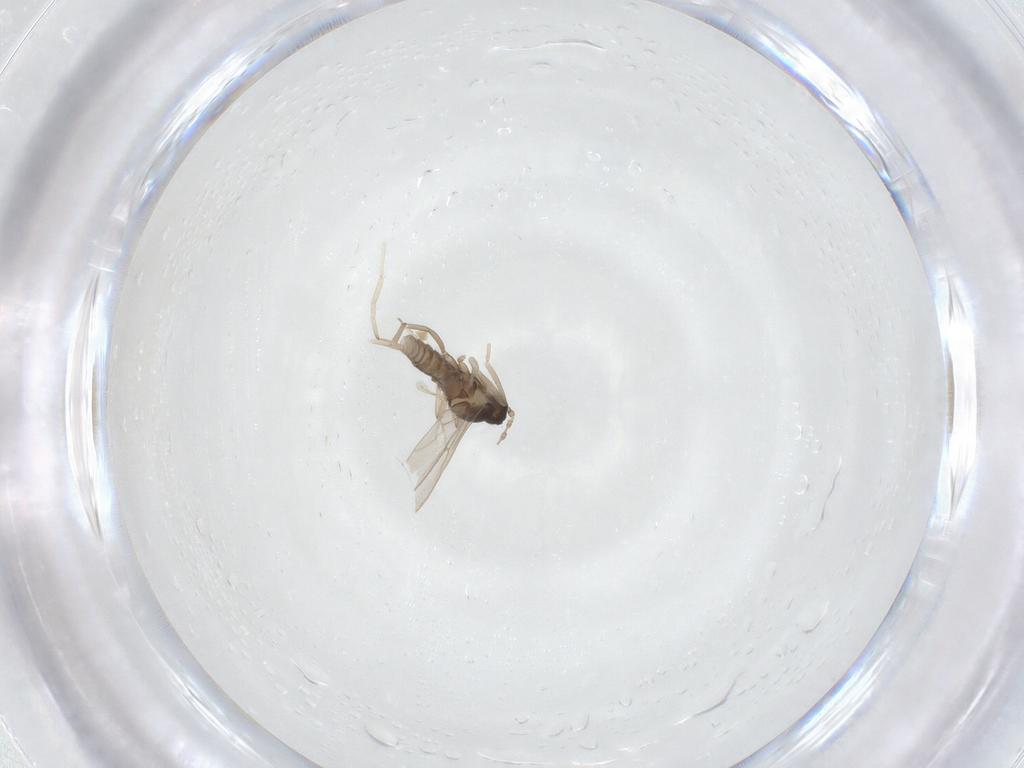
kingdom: Animalia
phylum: Arthropoda
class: Insecta
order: Diptera
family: Cecidomyiidae
